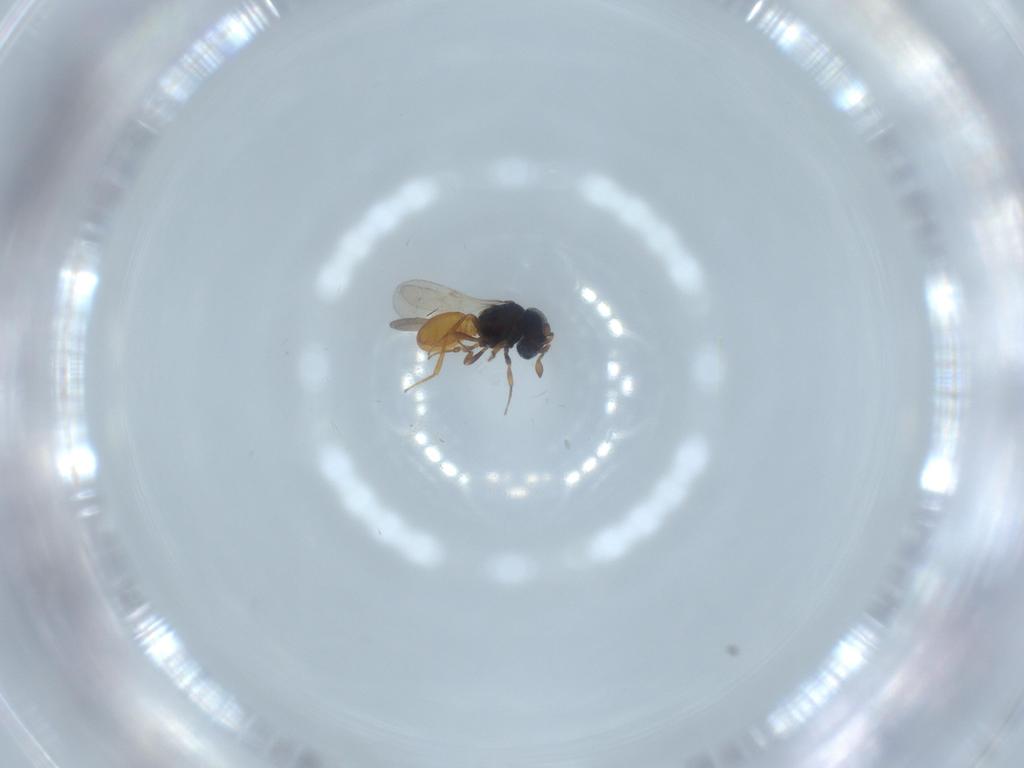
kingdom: Animalia
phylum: Arthropoda
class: Insecta
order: Hymenoptera
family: Scelionidae
